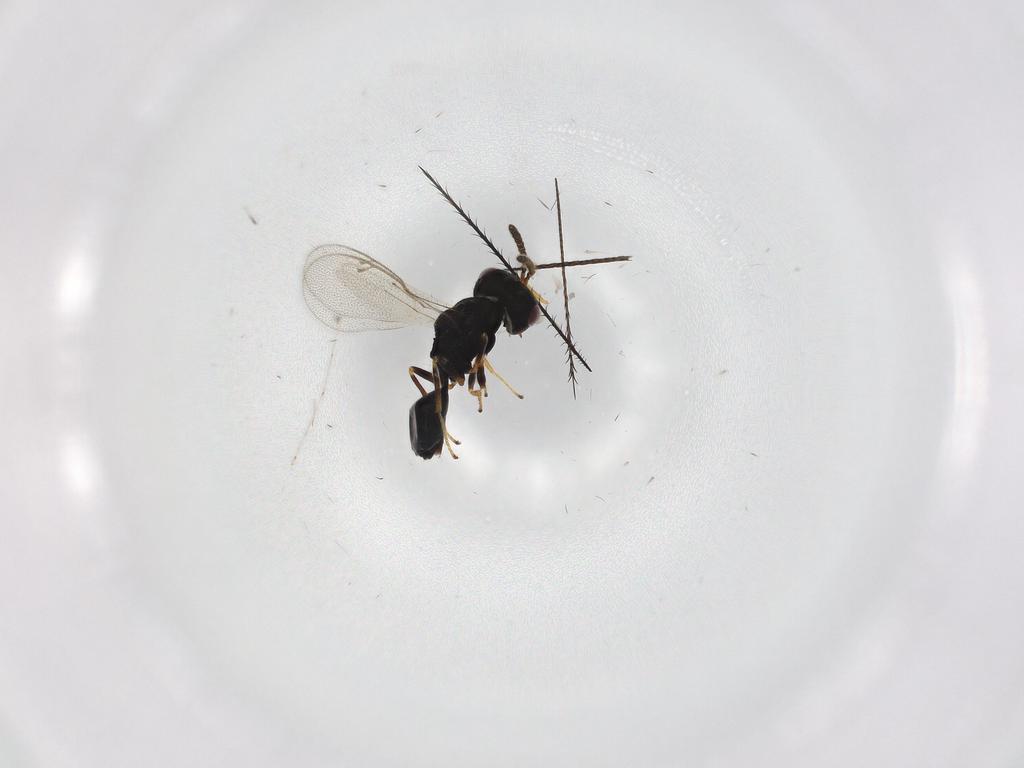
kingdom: Animalia
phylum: Arthropoda
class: Insecta
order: Hymenoptera
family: Pteromalidae
